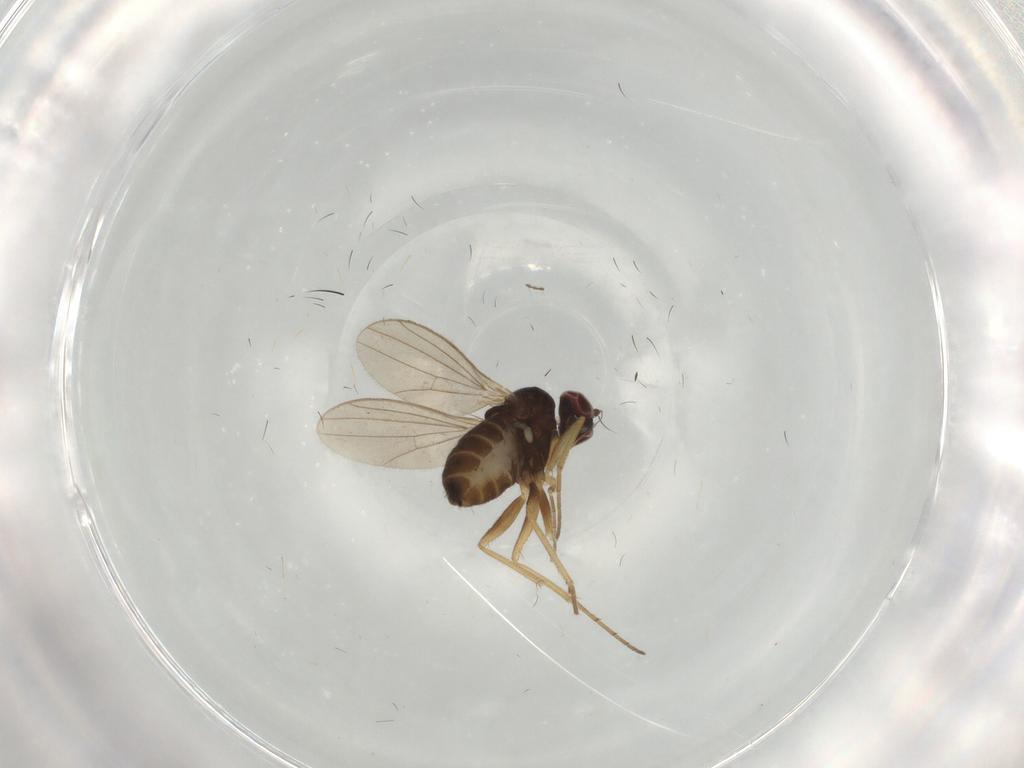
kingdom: Animalia
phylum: Arthropoda
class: Insecta
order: Diptera
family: Dolichopodidae
